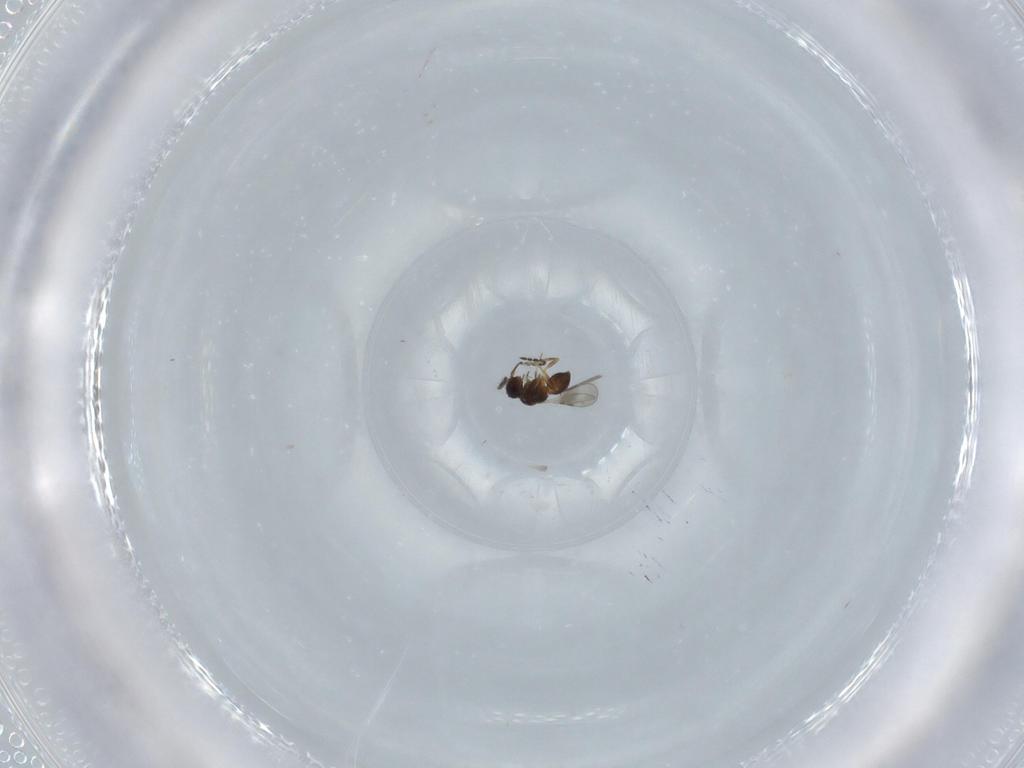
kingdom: Animalia
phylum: Arthropoda
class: Insecta
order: Hymenoptera
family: Ceraphronidae
